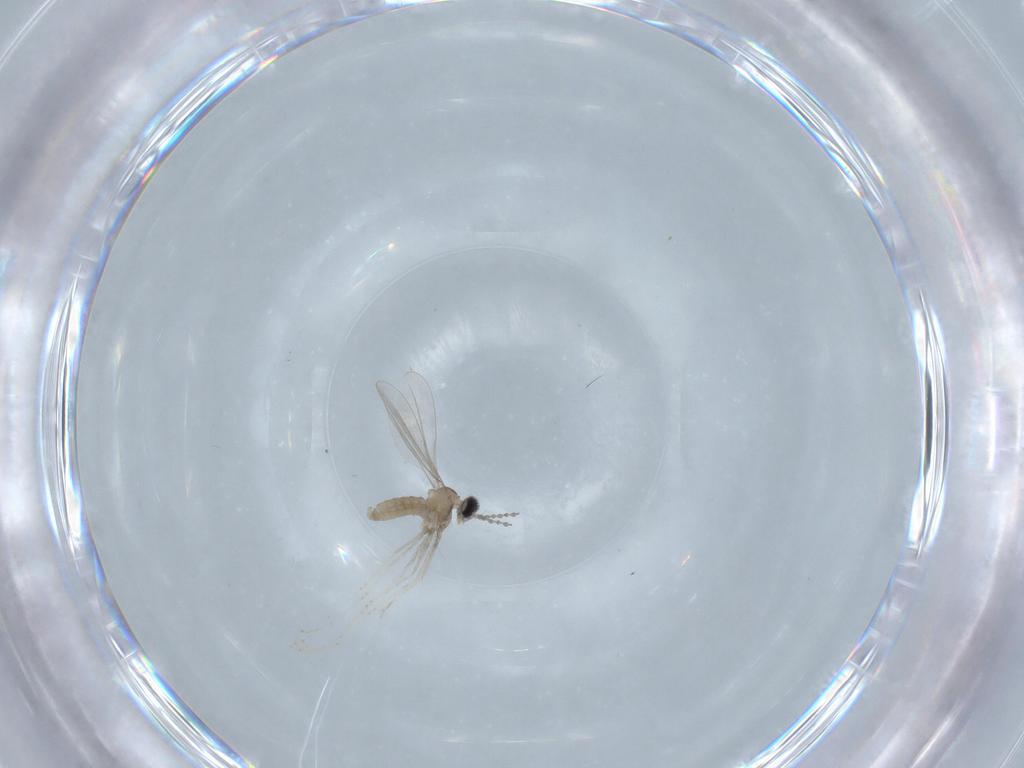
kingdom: Animalia
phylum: Arthropoda
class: Insecta
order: Diptera
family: Cecidomyiidae
